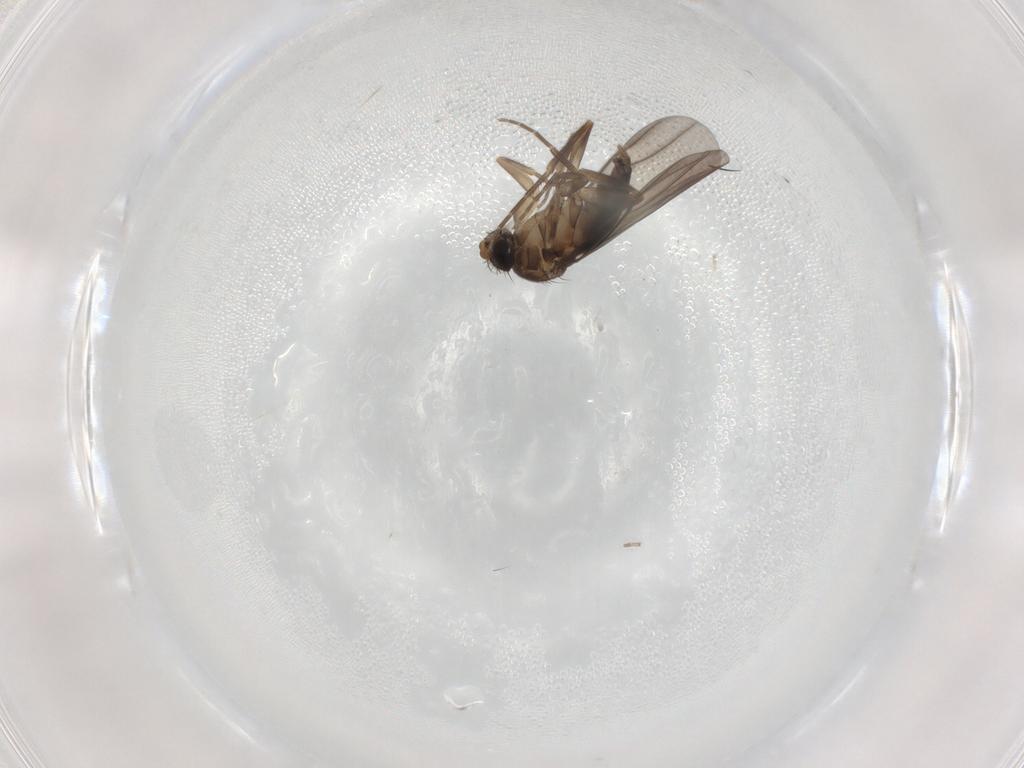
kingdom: Animalia
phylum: Arthropoda
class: Insecta
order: Diptera
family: Phoridae
